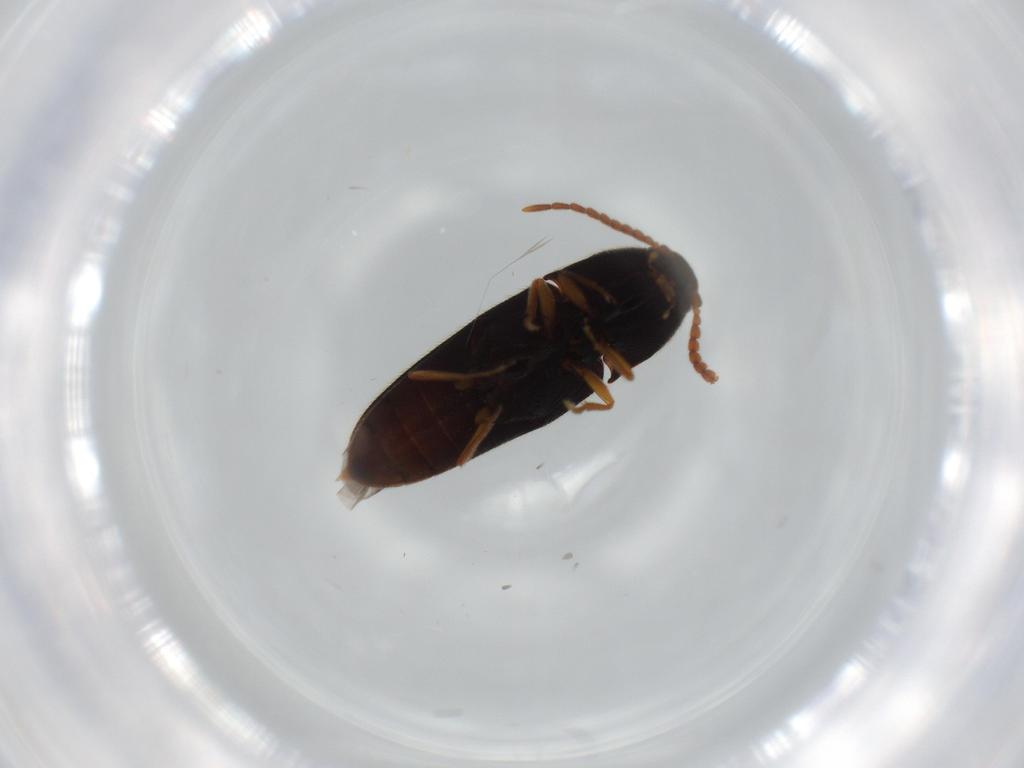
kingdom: Animalia
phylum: Arthropoda
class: Insecta
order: Coleoptera
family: Elateridae
